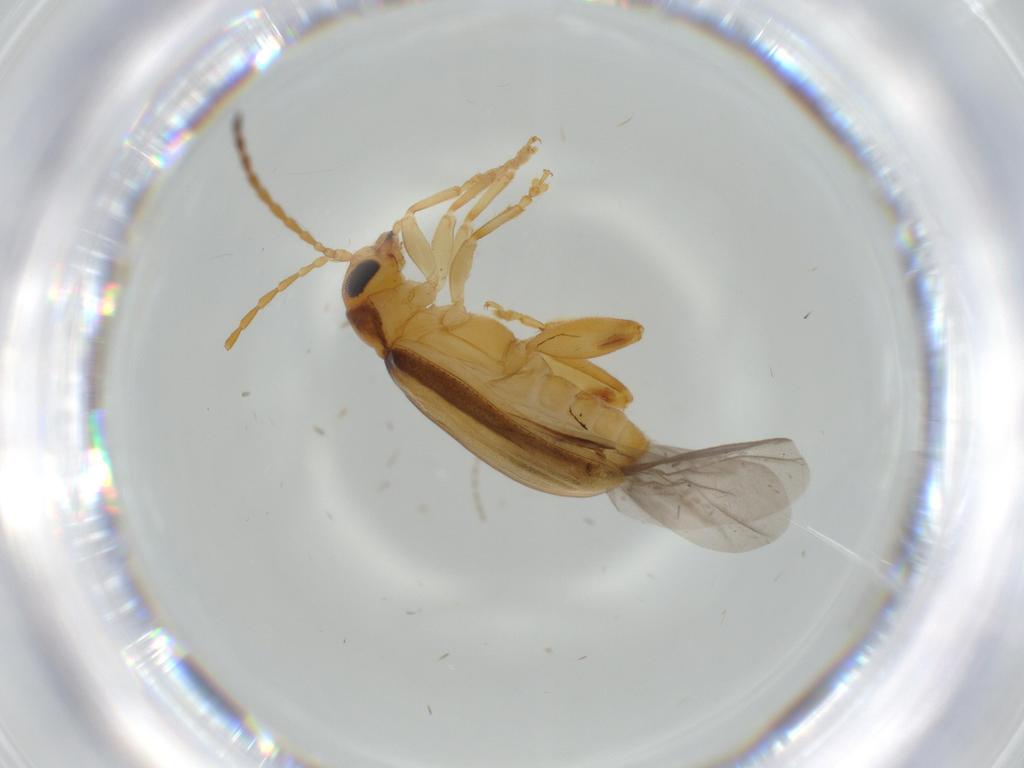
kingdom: Animalia
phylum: Arthropoda
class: Insecta
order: Coleoptera
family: Chrysomelidae
